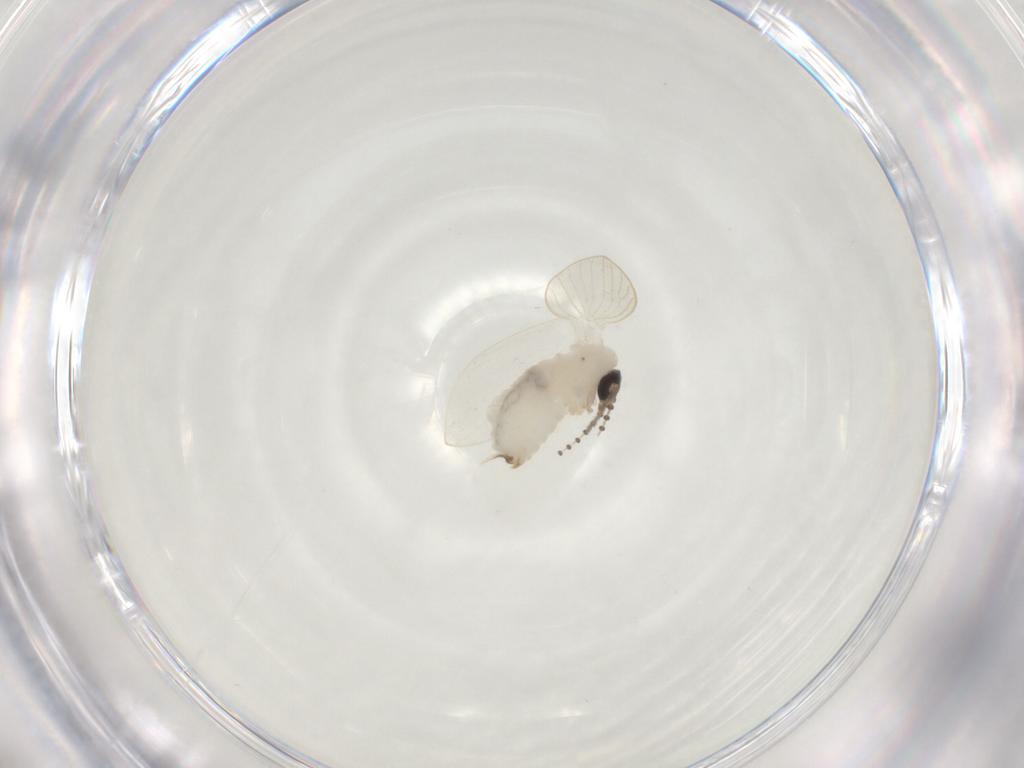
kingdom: Animalia
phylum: Arthropoda
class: Insecta
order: Diptera
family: Psychodidae
